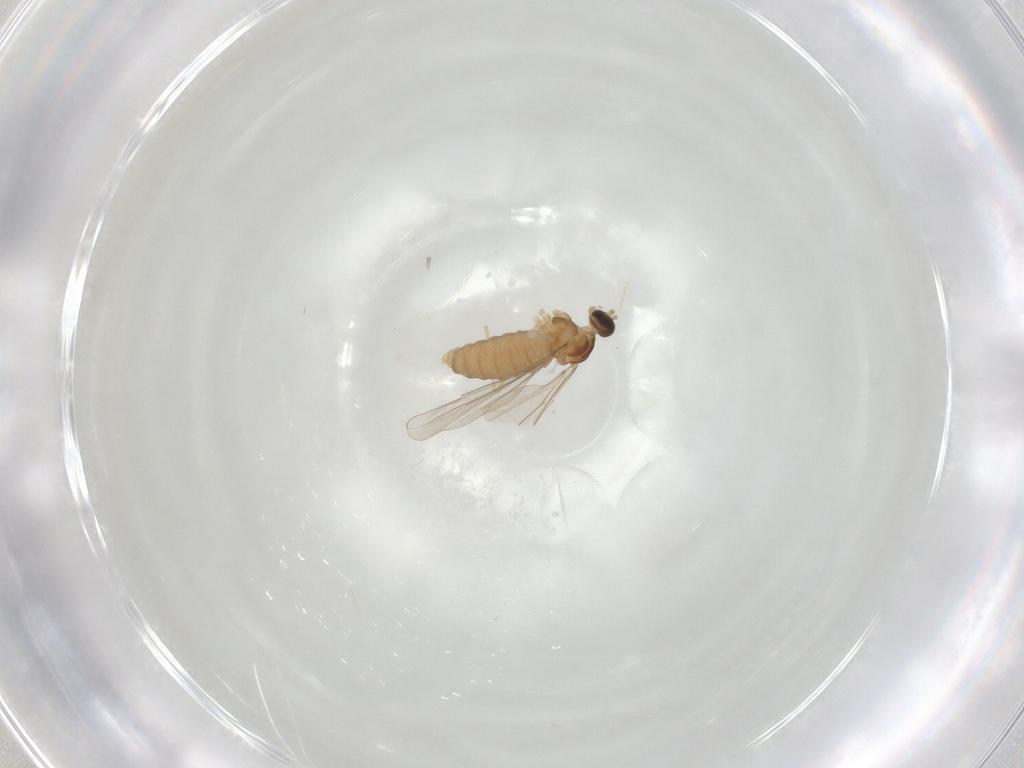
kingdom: Animalia
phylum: Arthropoda
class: Insecta
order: Diptera
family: Cecidomyiidae
